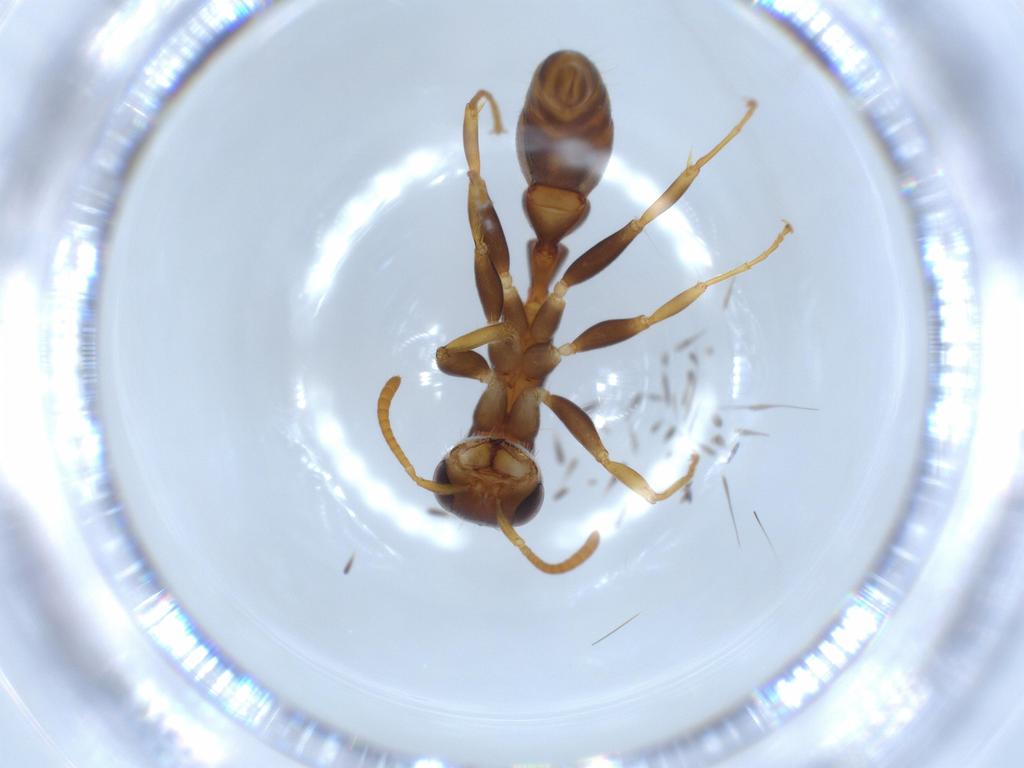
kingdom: Animalia
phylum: Arthropoda
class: Insecta
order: Hymenoptera
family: Formicidae
